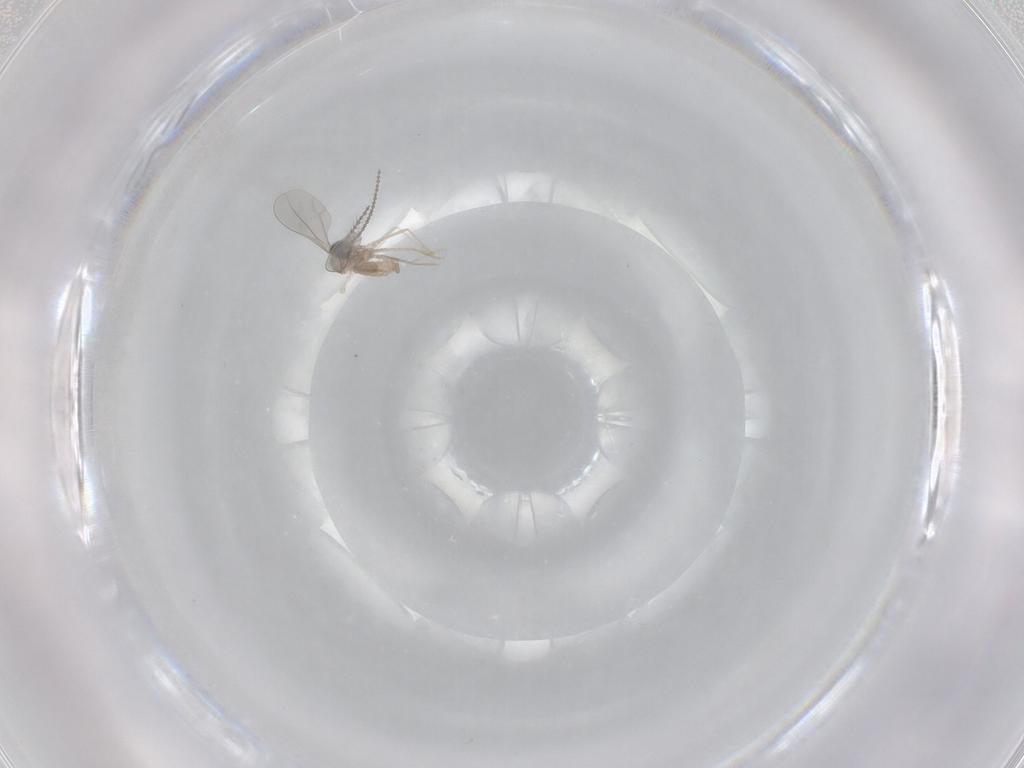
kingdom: Animalia
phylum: Arthropoda
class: Insecta
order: Diptera
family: Cecidomyiidae
